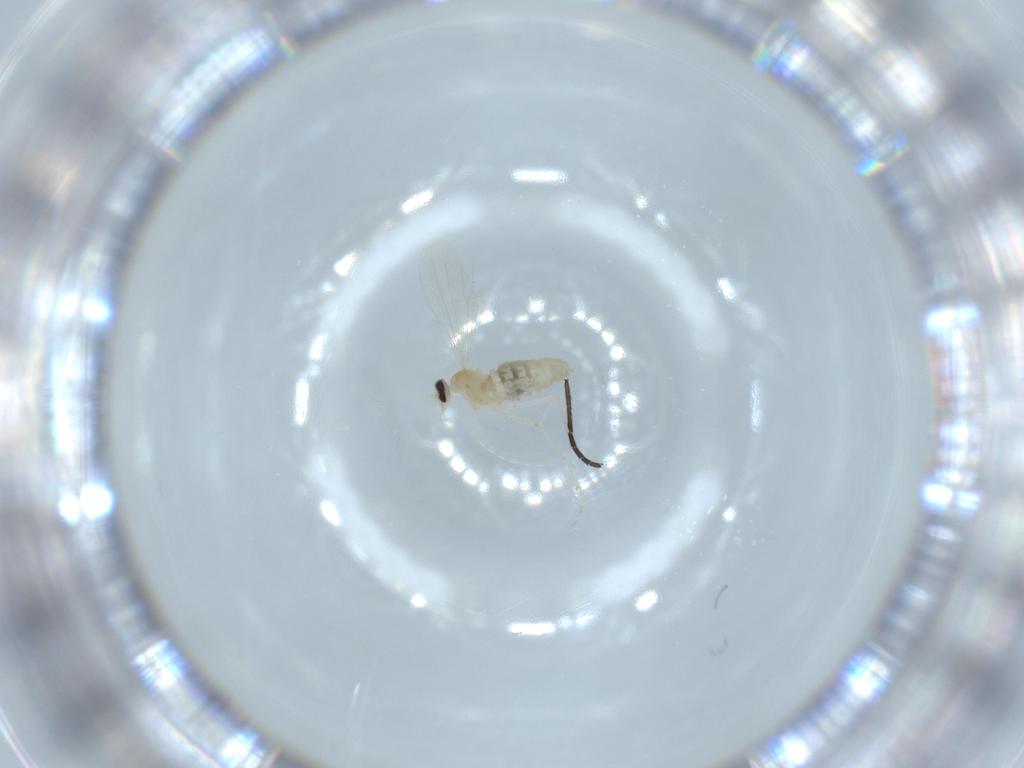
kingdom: Animalia
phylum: Arthropoda
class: Insecta
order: Diptera
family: Cecidomyiidae
